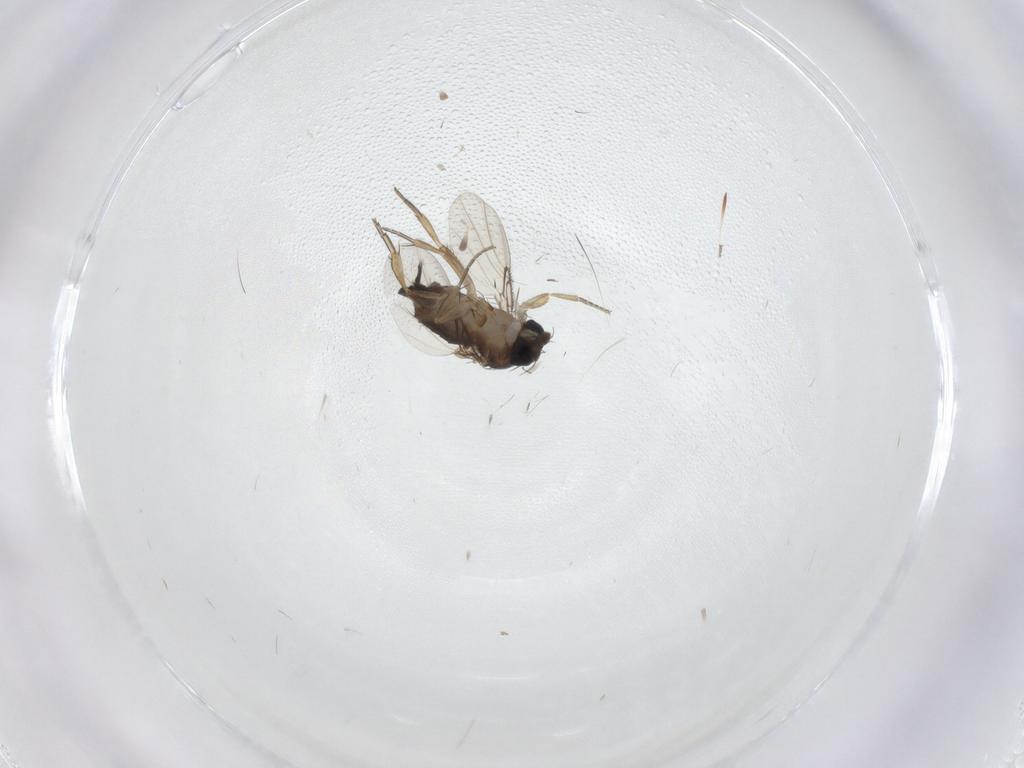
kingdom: Animalia
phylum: Arthropoda
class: Insecta
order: Diptera
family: Phoridae
